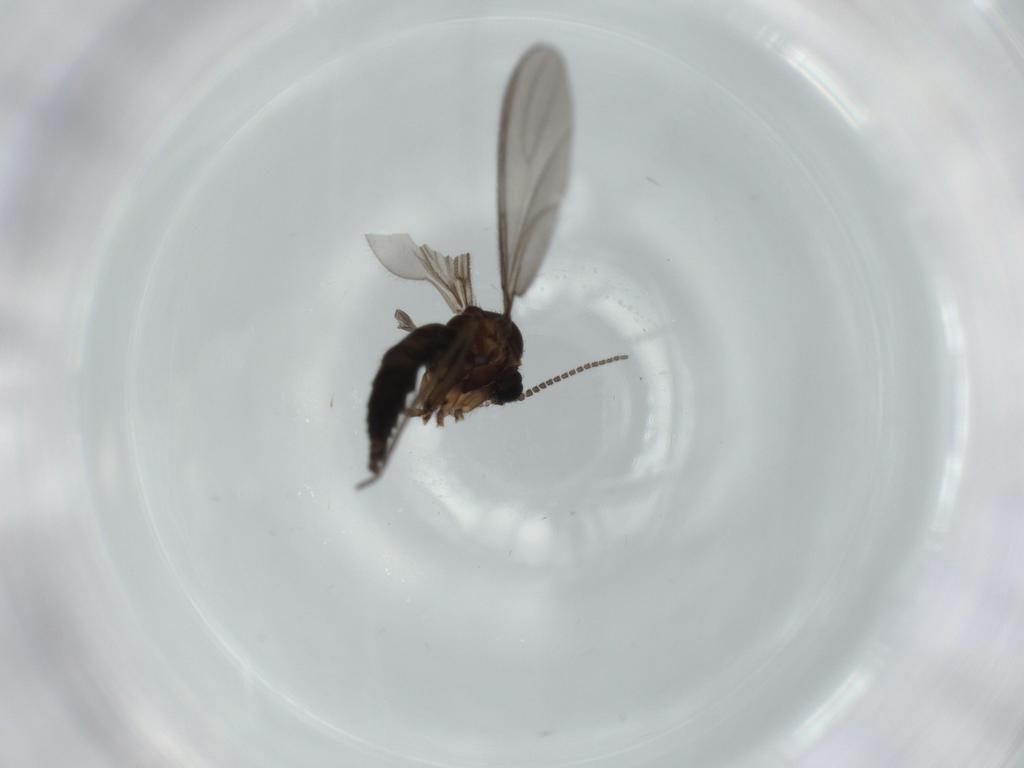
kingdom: Animalia
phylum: Arthropoda
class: Insecta
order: Diptera
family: Sciaridae
